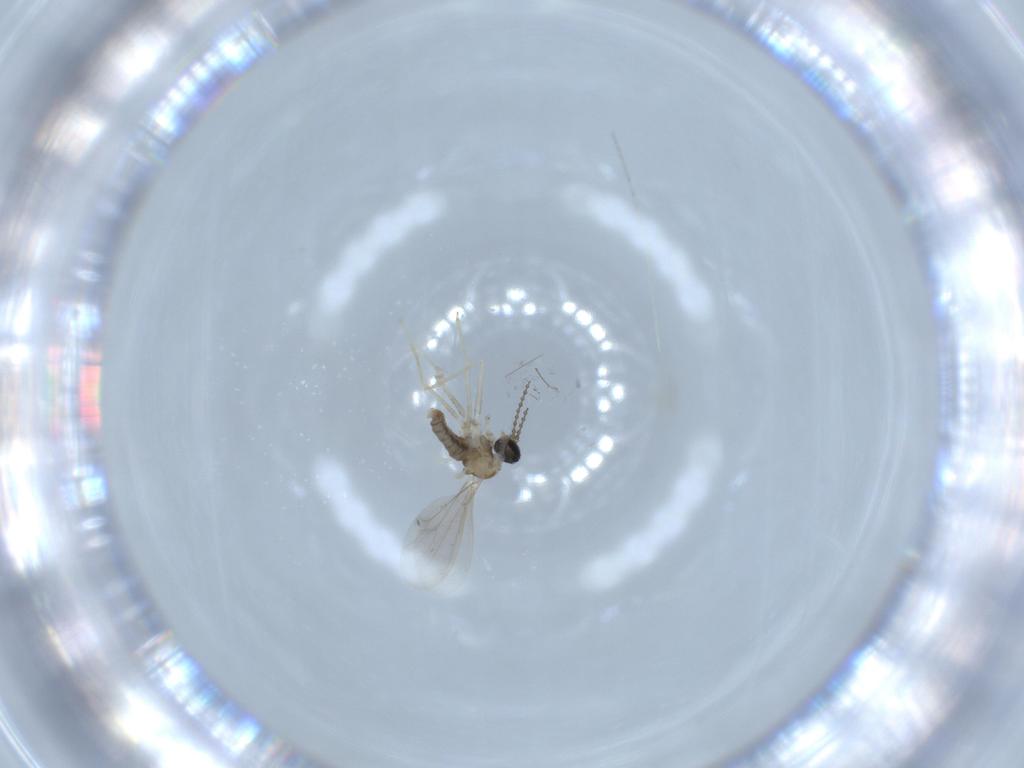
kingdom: Animalia
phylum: Arthropoda
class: Insecta
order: Diptera
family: Cecidomyiidae
